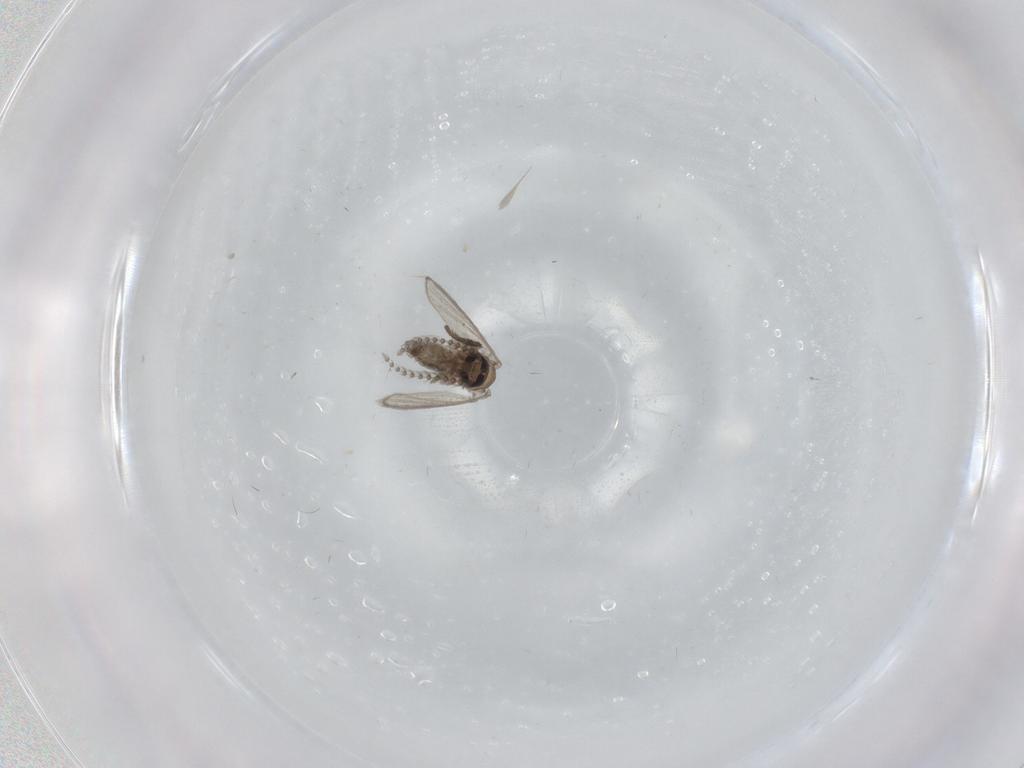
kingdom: Animalia
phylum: Arthropoda
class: Insecta
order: Diptera
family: Psychodidae
